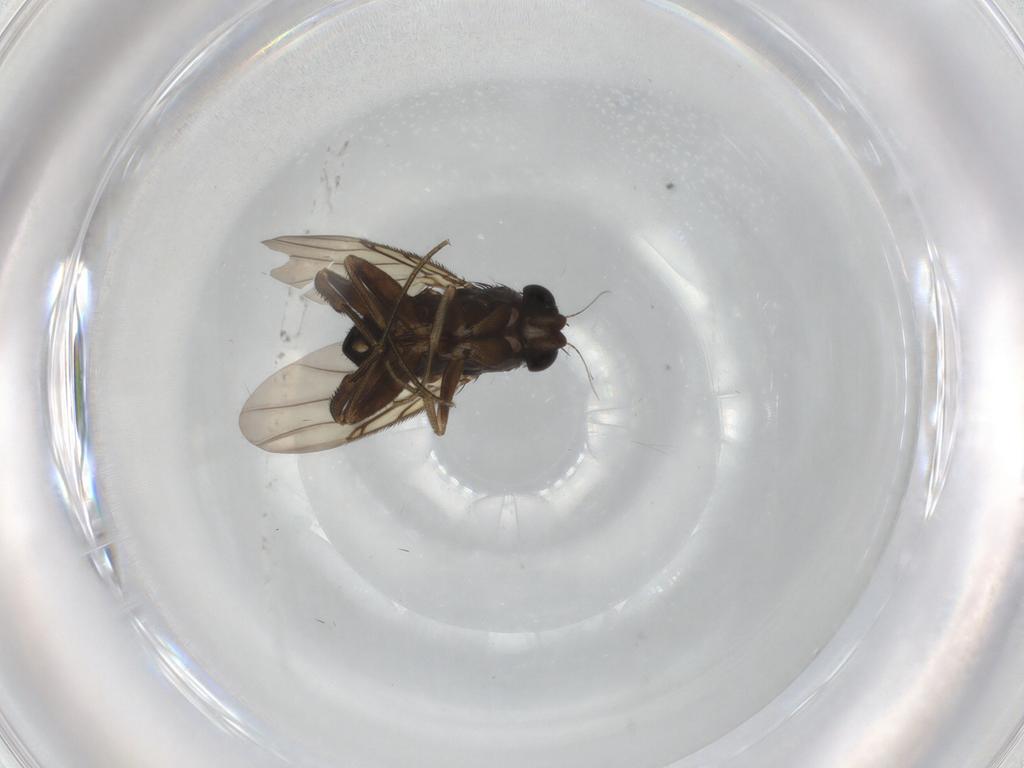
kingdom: Animalia
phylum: Arthropoda
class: Insecta
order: Diptera
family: Phoridae
